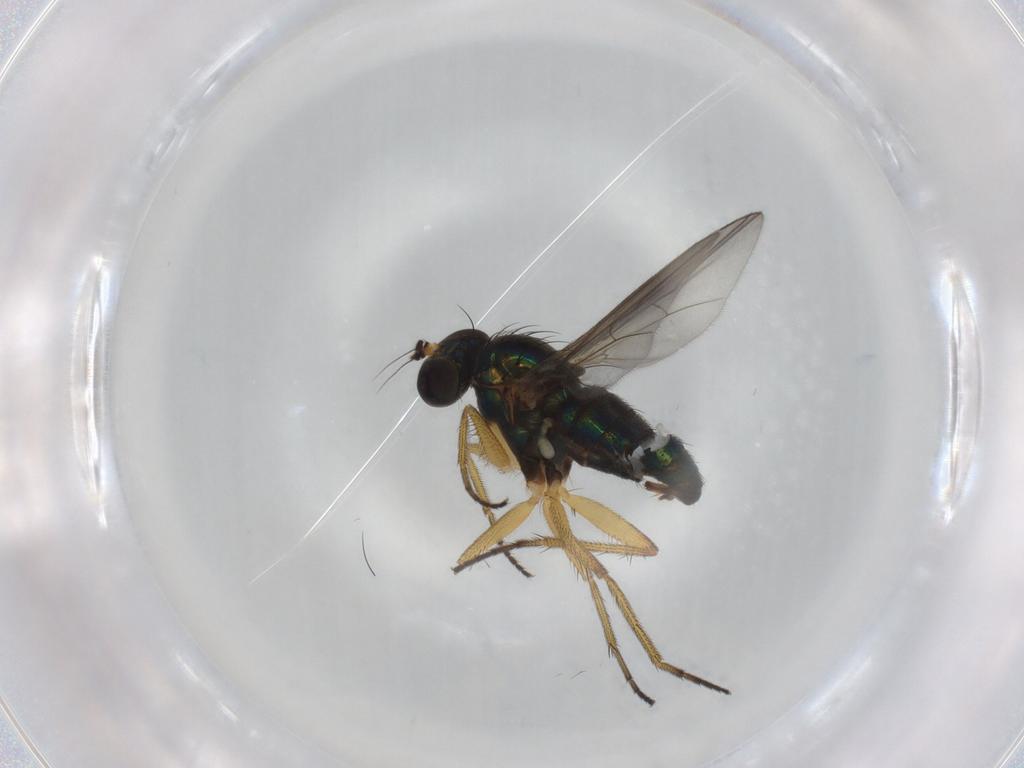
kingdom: Animalia
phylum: Arthropoda
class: Insecta
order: Diptera
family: Dolichopodidae
